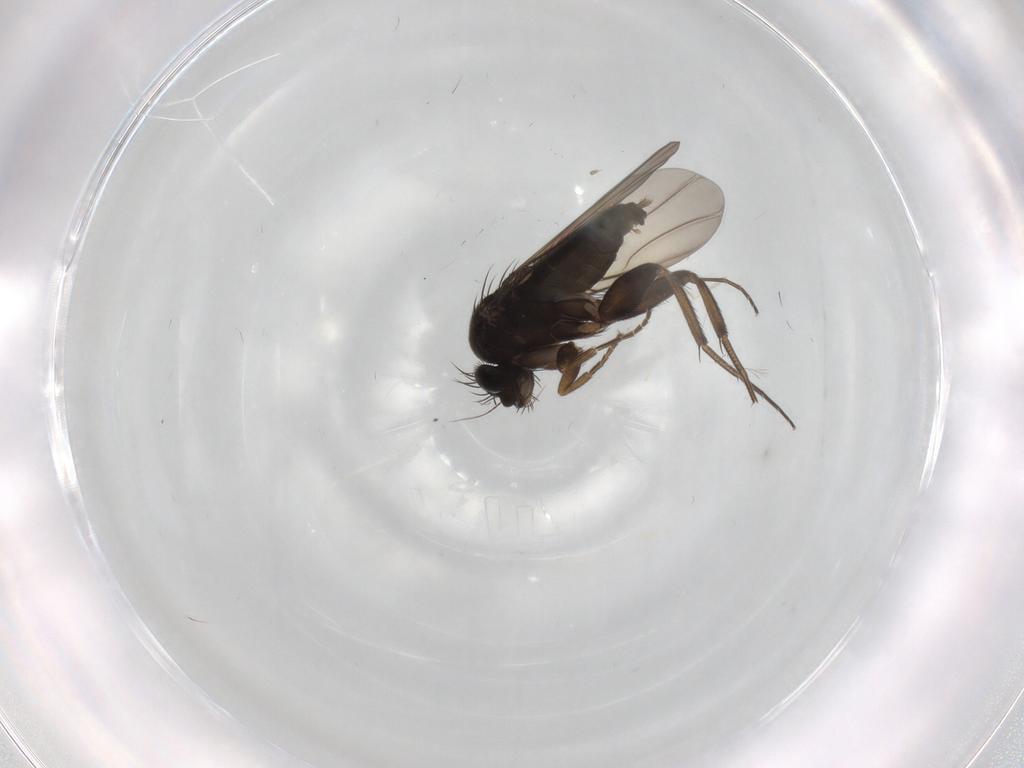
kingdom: Animalia
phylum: Arthropoda
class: Insecta
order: Diptera
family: Phoridae
